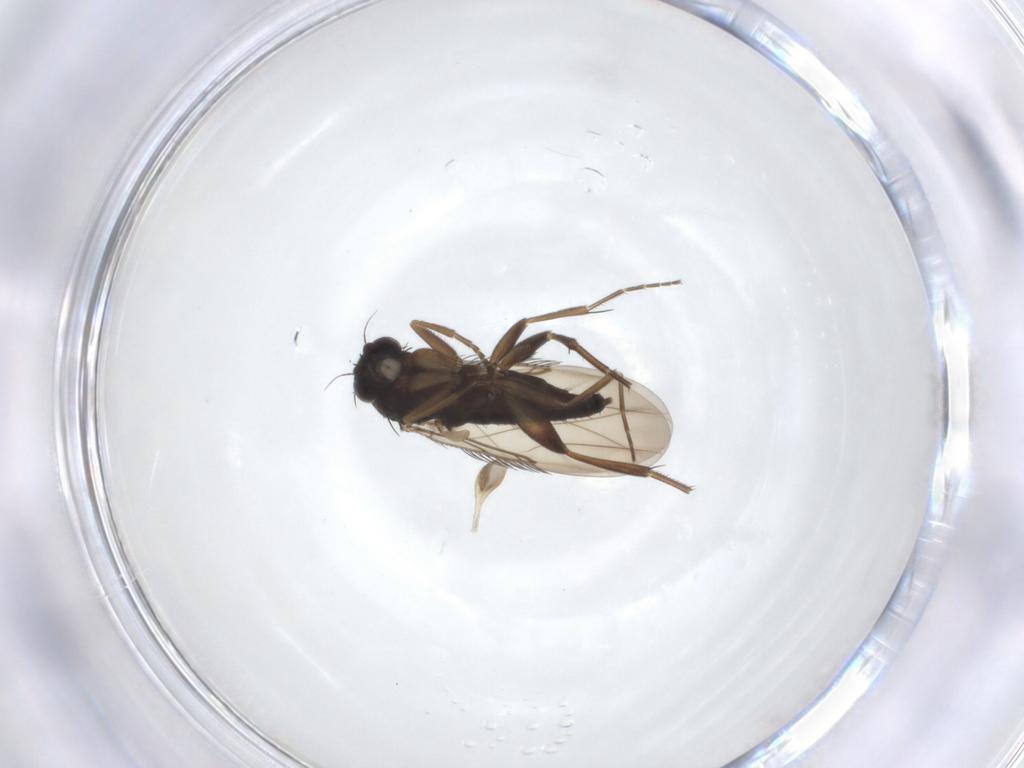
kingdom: Animalia
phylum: Arthropoda
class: Insecta
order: Diptera
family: Phoridae
